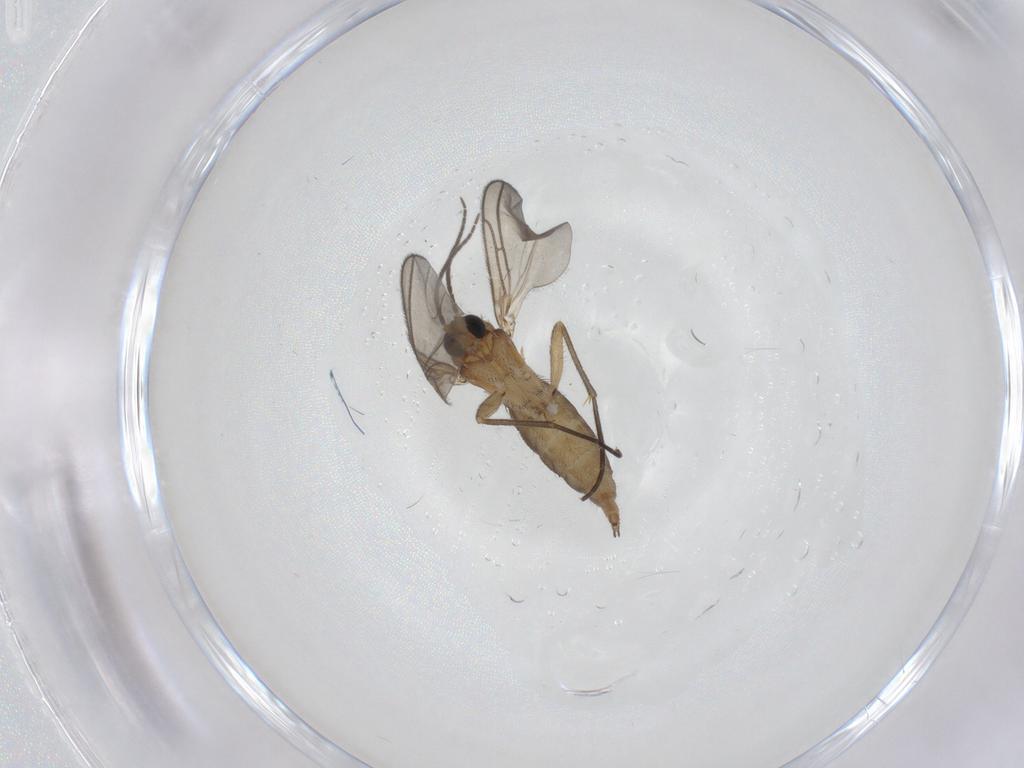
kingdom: Animalia
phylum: Arthropoda
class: Insecta
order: Diptera
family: Sciaridae
